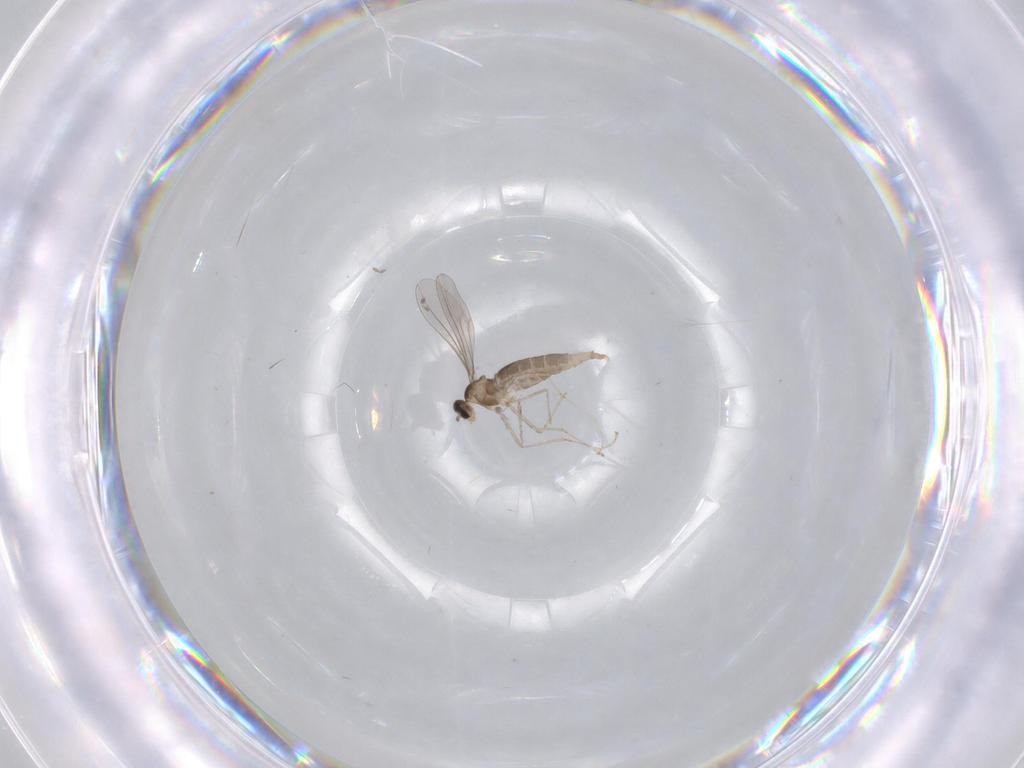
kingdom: Animalia
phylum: Arthropoda
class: Insecta
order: Diptera
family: Cecidomyiidae
